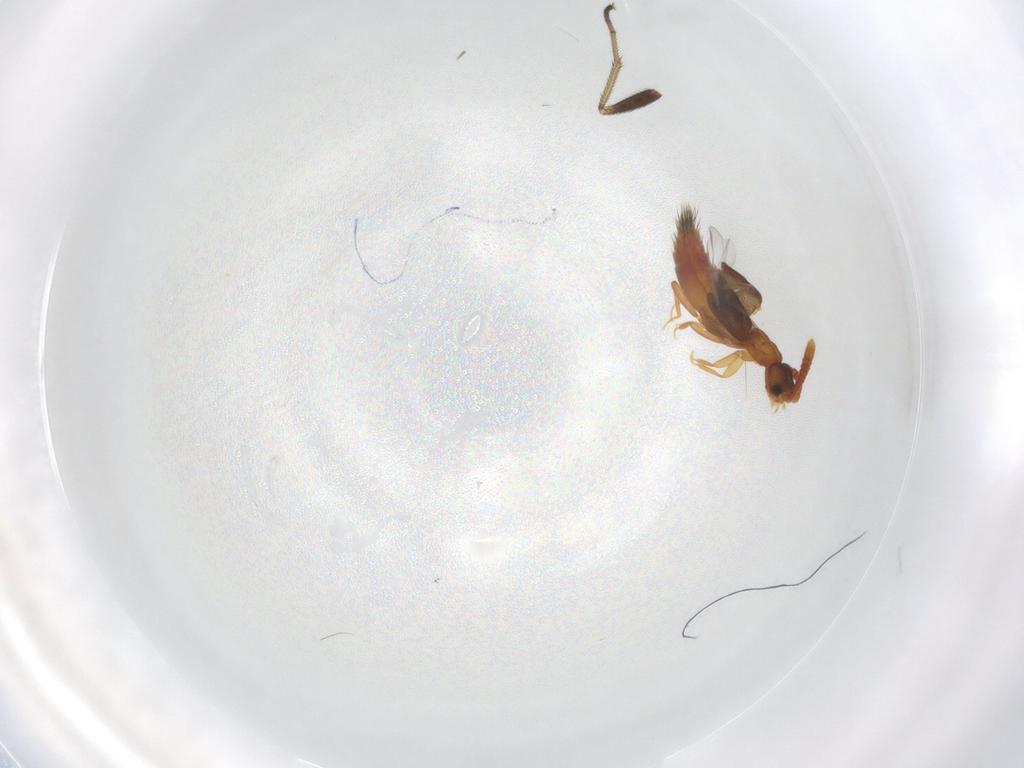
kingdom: Animalia
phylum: Arthropoda
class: Insecta
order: Coleoptera
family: Staphylinidae
